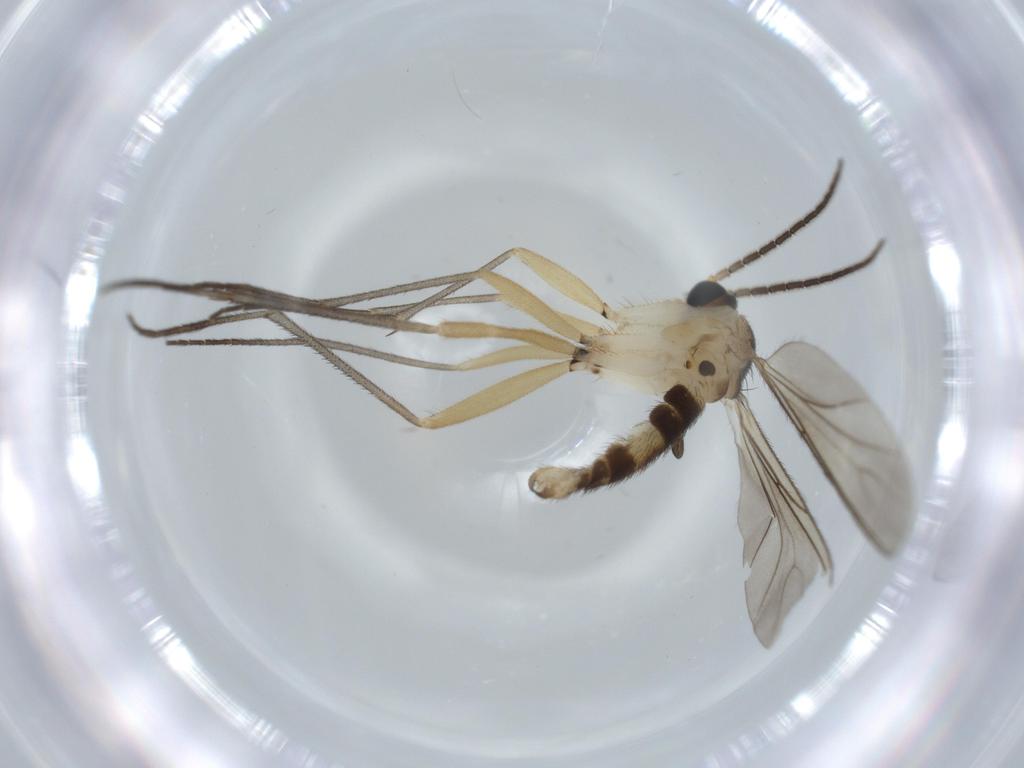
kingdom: Animalia
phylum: Arthropoda
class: Insecta
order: Diptera
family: Sciaridae
